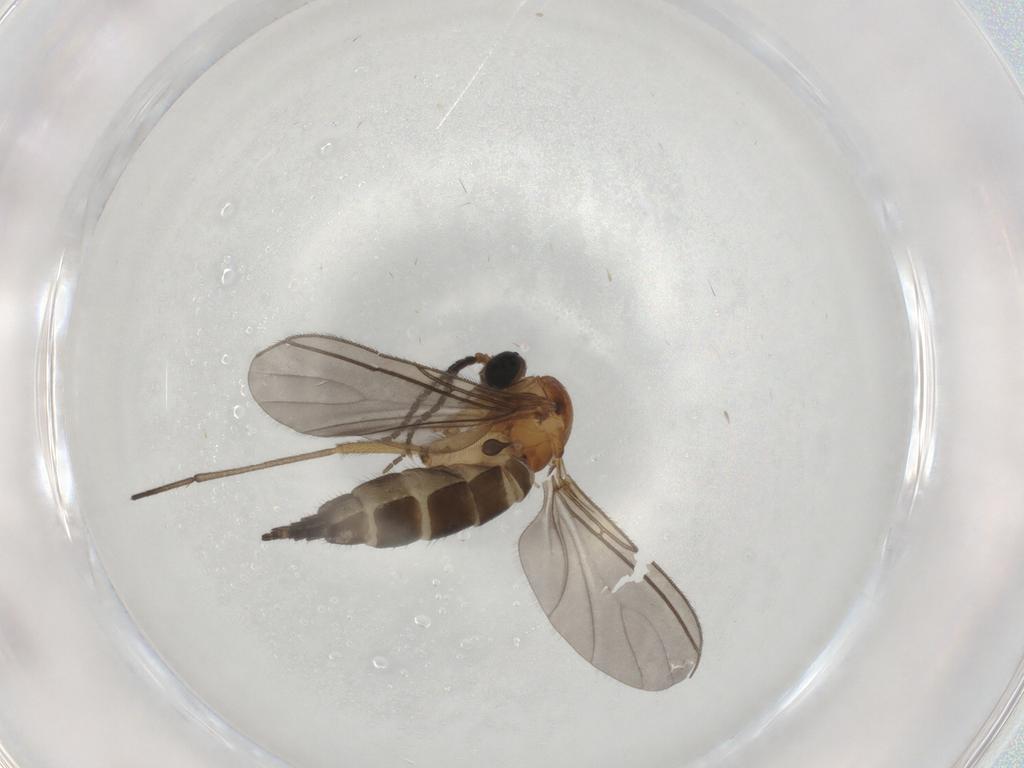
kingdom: Animalia
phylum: Arthropoda
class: Insecta
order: Diptera
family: Sciaridae
